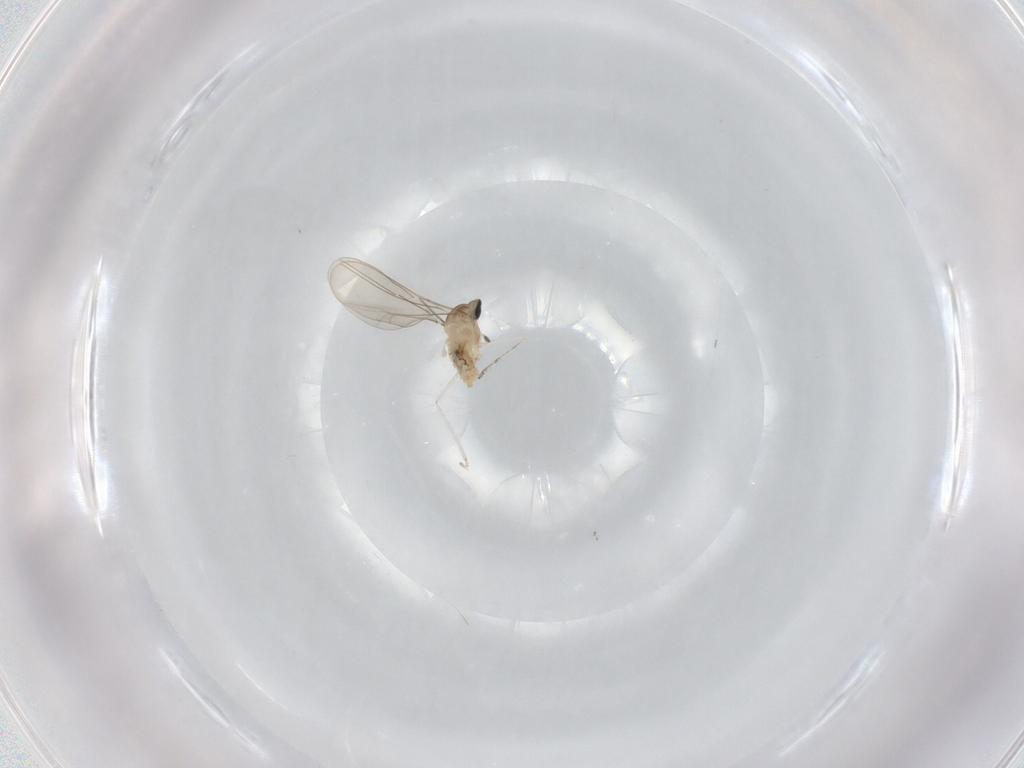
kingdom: Animalia
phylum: Arthropoda
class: Insecta
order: Diptera
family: Cecidomyiidae
